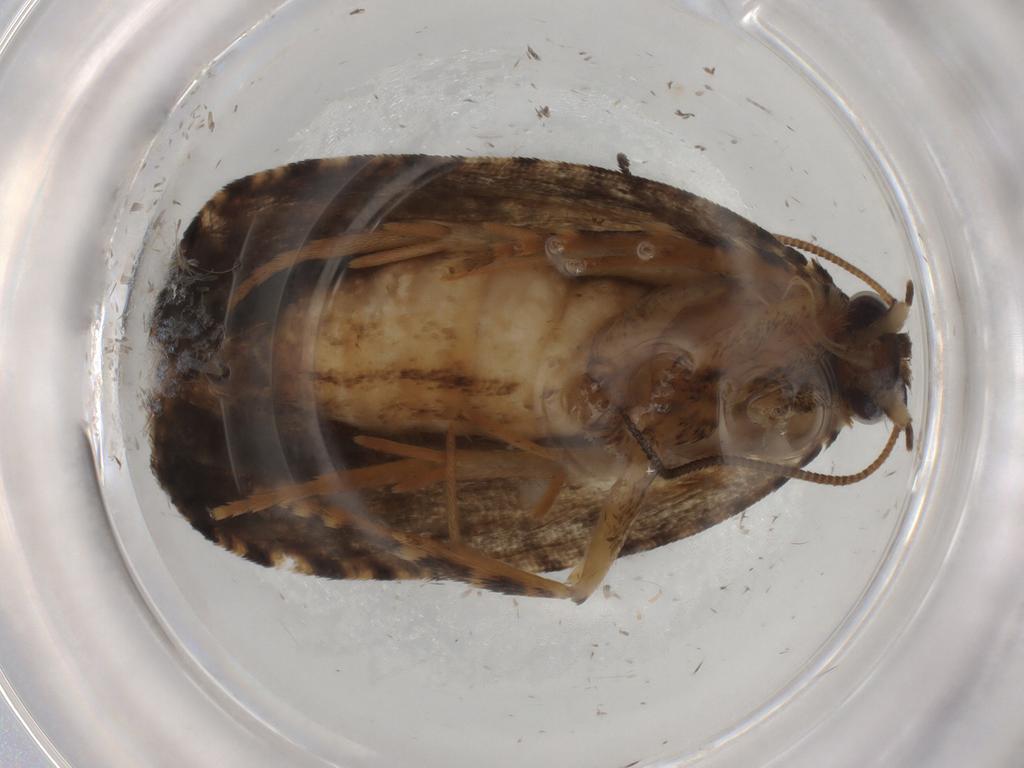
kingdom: Animalia
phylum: Arthropoda
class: Insecta
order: Lepidoptera
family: Tortricidae
